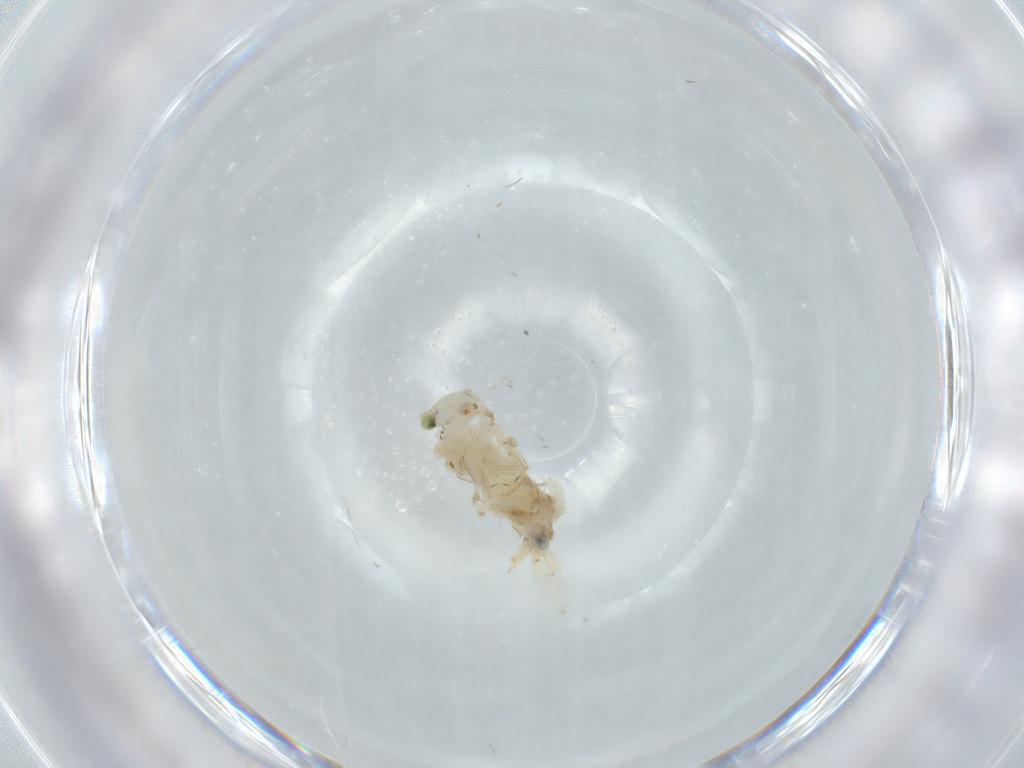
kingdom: Animalia
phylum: Arthropoda
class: Insecta
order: Psocodea
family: Lepidopsocidae
